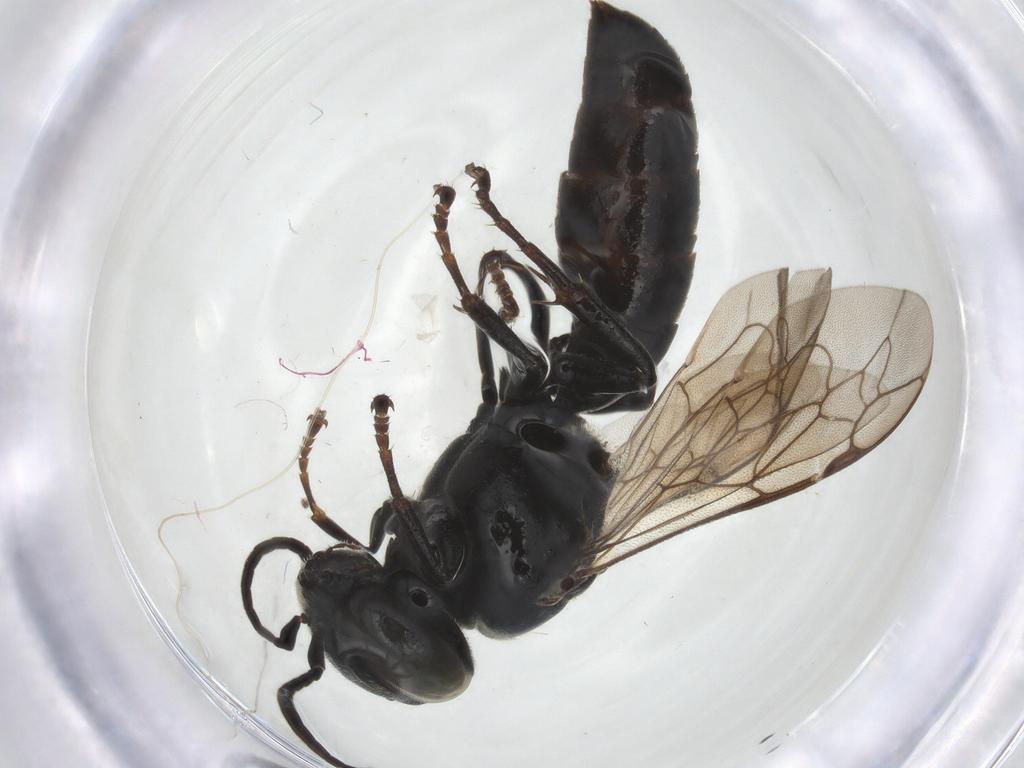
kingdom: Animalia
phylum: Arthropoda
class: Insecta
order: Hymenoptera
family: Crabronidae
